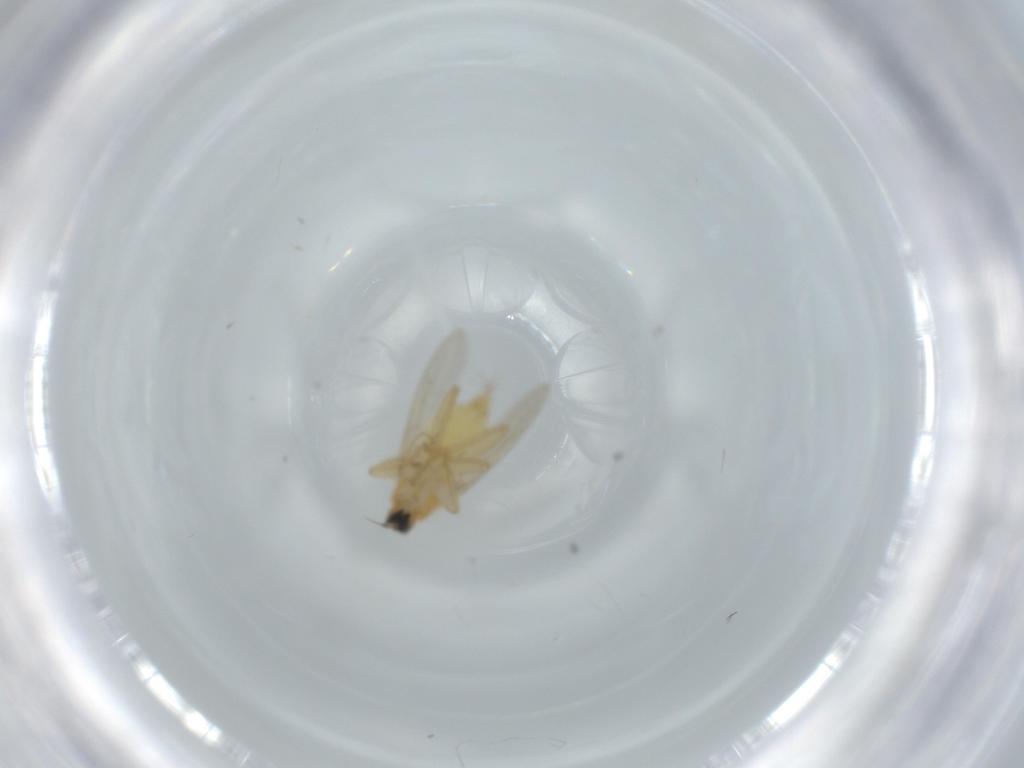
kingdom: Animalia
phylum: Arthropoda
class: Insecta
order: Diptera
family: Hybotidae
